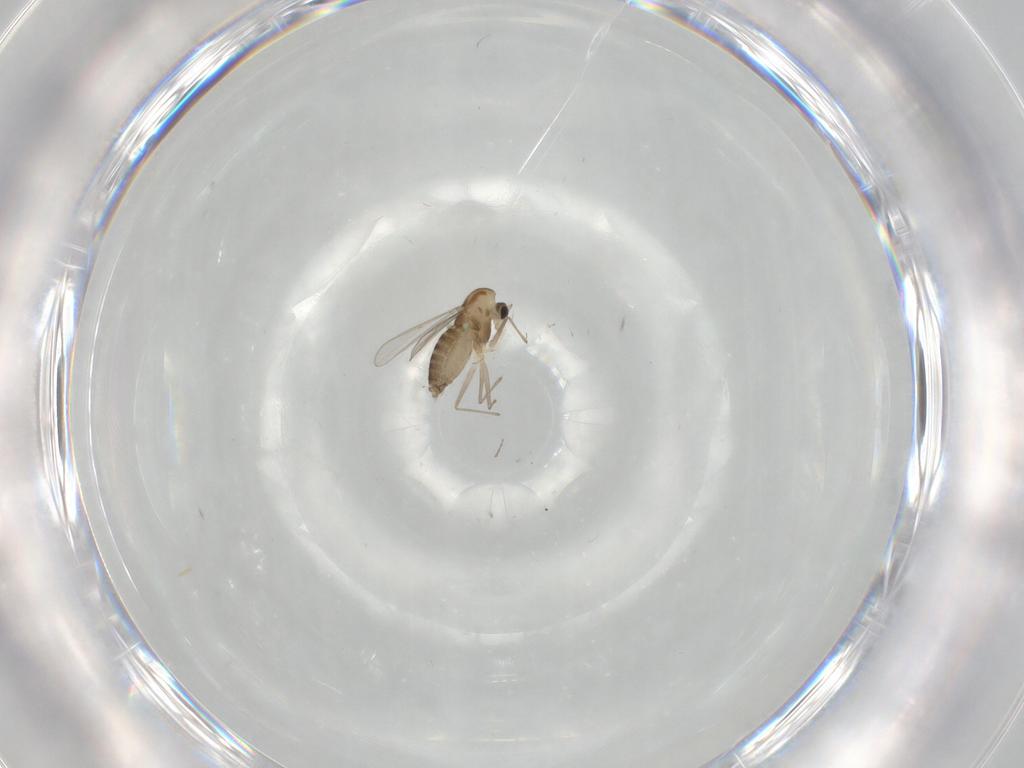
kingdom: Animalia
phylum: Arthropoda
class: Insecta
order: Diptera
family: Chironomidae
